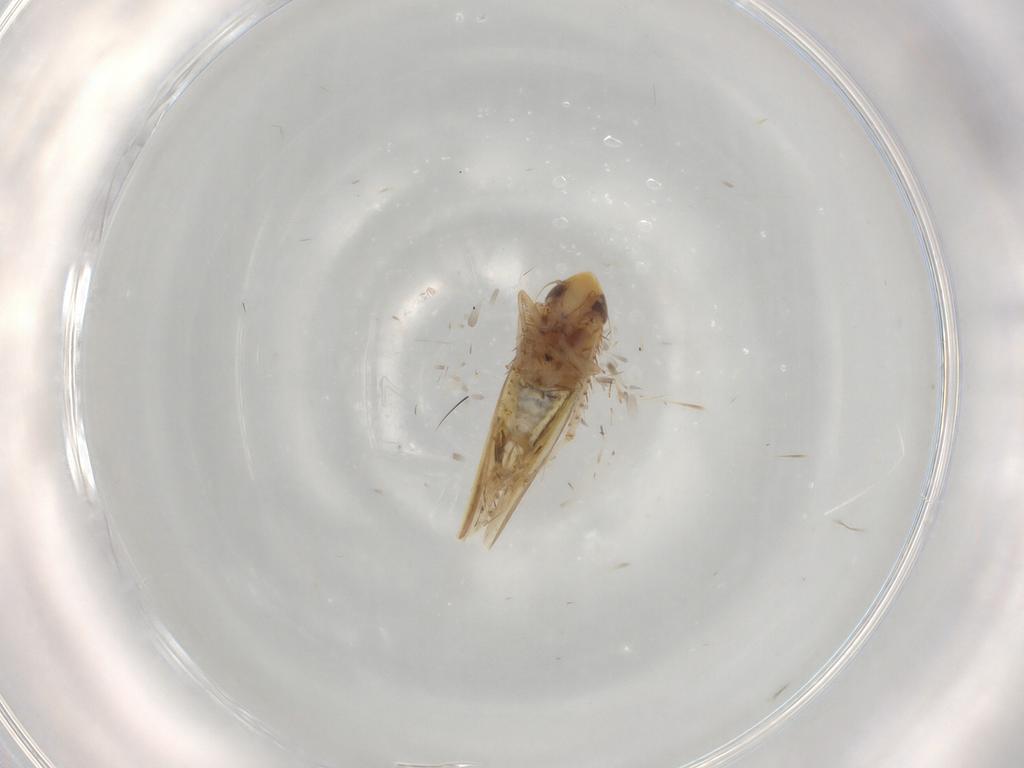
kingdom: Animalia
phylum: Arthropoda
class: Insecta
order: Hemiptera
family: Cicadellidae
